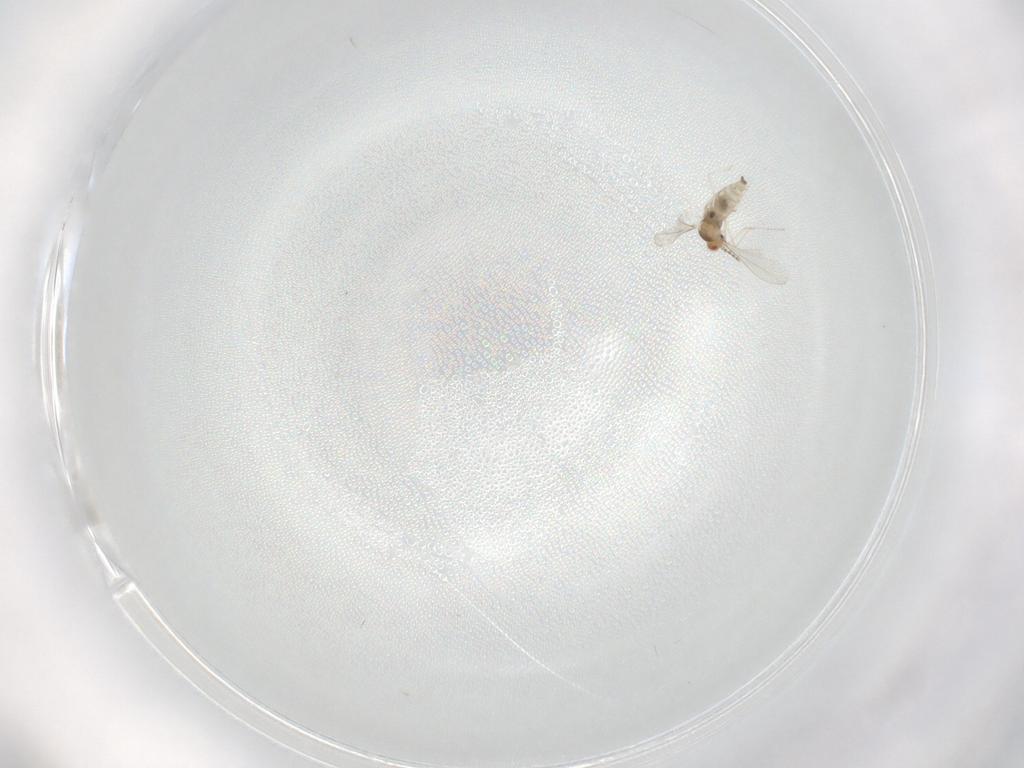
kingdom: Animalia
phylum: Arthropoda
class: Insecta
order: Diptera
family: Cecidomyiidae
